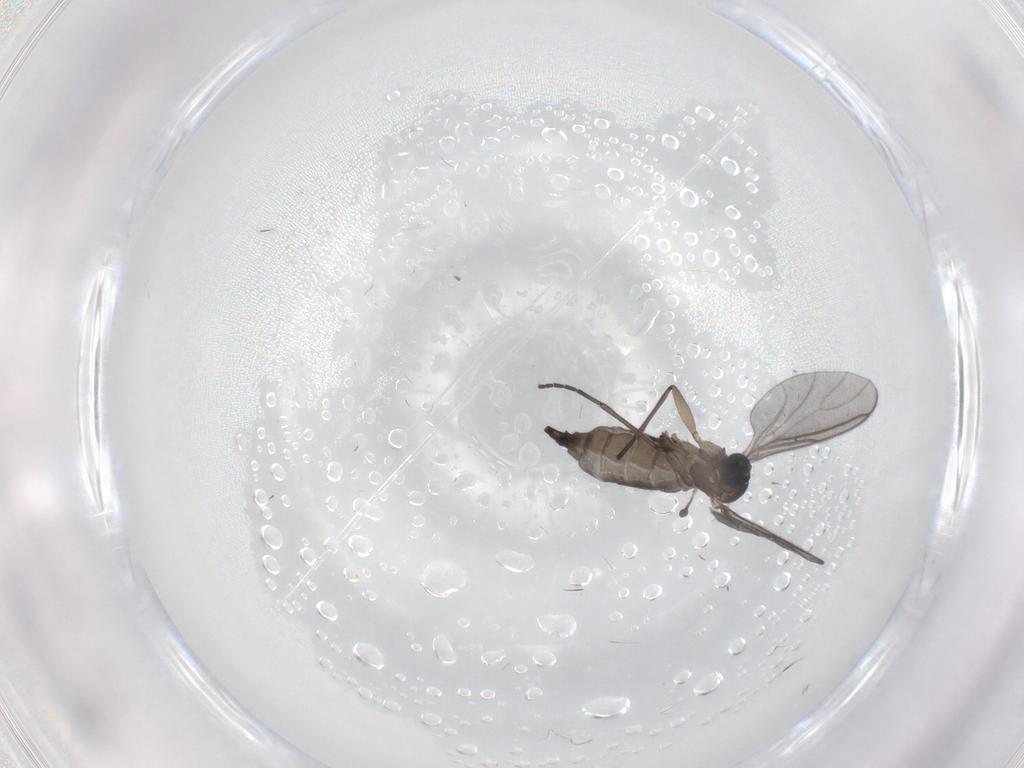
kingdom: Animalia
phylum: Arthropoda
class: Insecta
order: Diptera
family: Sciaridae
